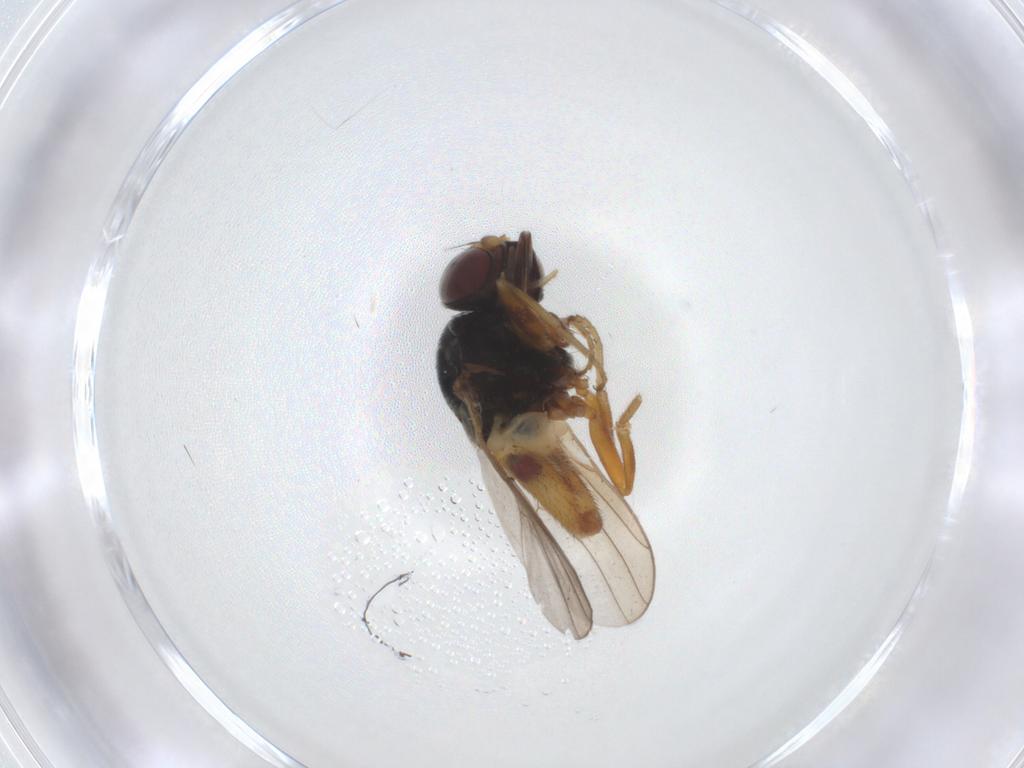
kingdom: Animalia
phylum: Arthropoda
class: Insecta
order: Diptera
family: Chloropidae
